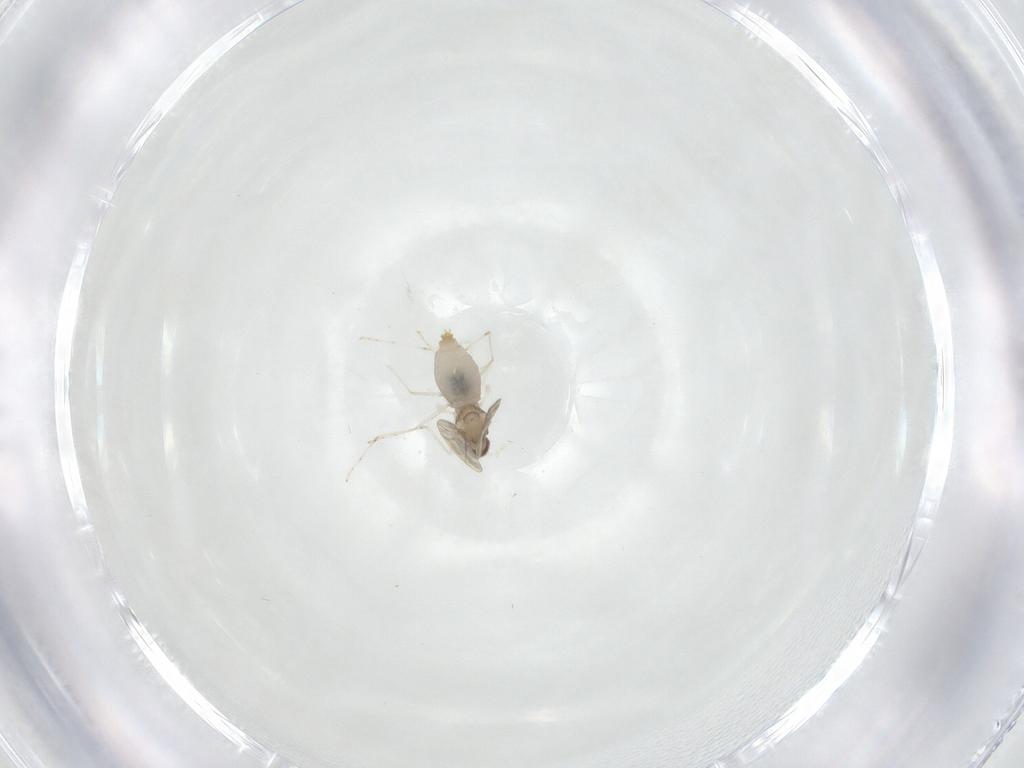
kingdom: Animalia
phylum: Arthropoda
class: Insecta
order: Diptera
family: Cecidomyiidae
